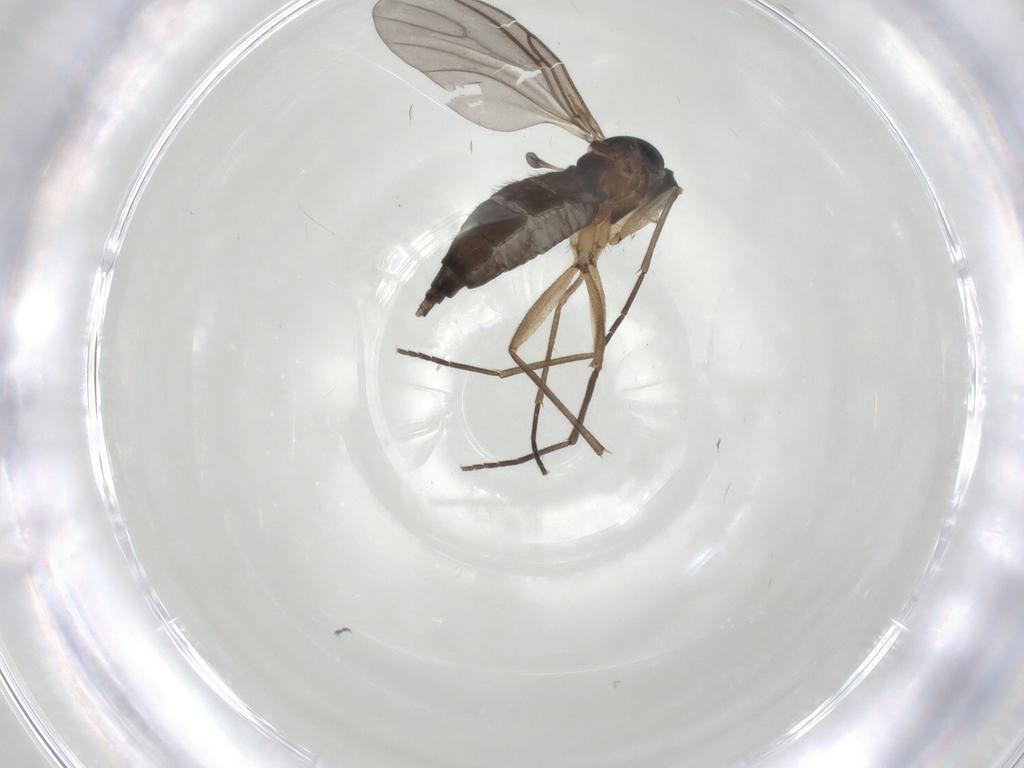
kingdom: Animalia
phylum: Arthropoda
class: Insecta
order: Diptera
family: Sciaridae
